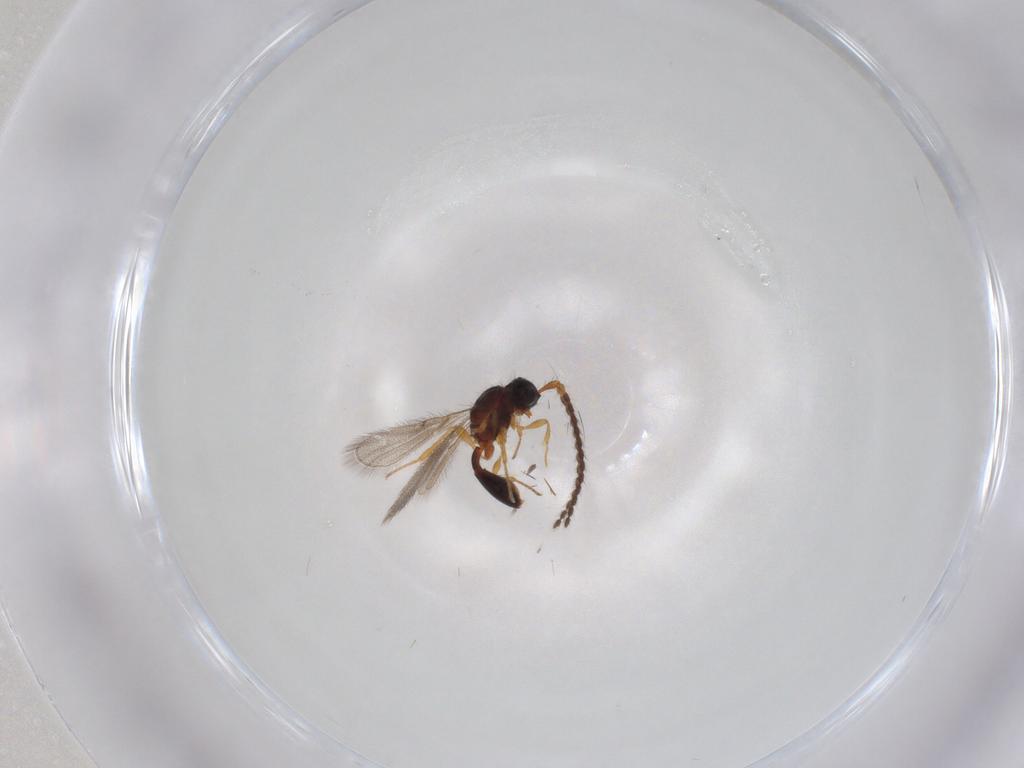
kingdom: Animalia
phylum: Arthropoda
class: Insecta
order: Hymenoptera
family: Diapriidae
